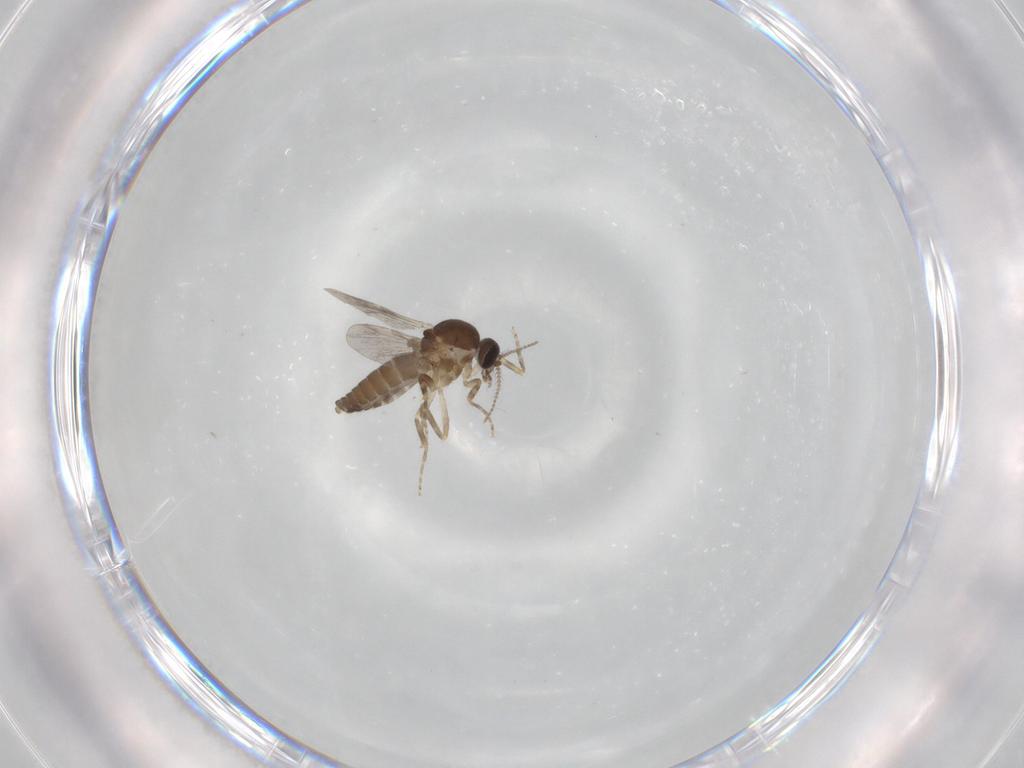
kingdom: Animalia
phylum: Arthropoda
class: Insecta
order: Diptera
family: Ceratopogonidae
